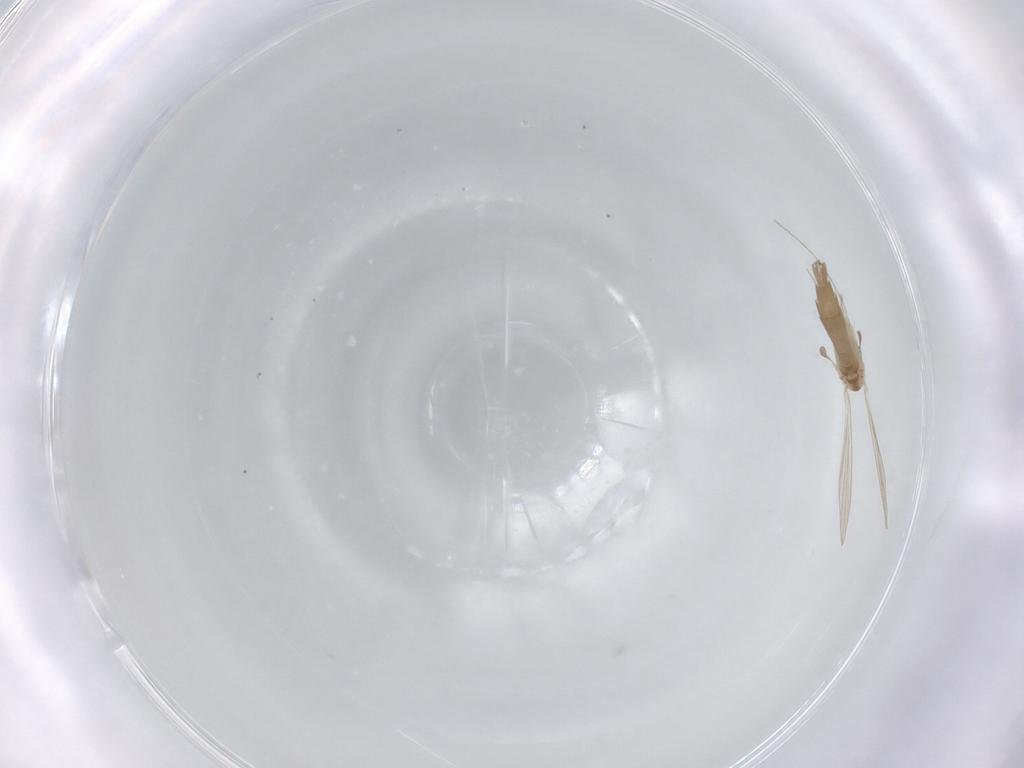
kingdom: Animalia
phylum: Arthropoda
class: Insecta
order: Diptera
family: Psychodidae
